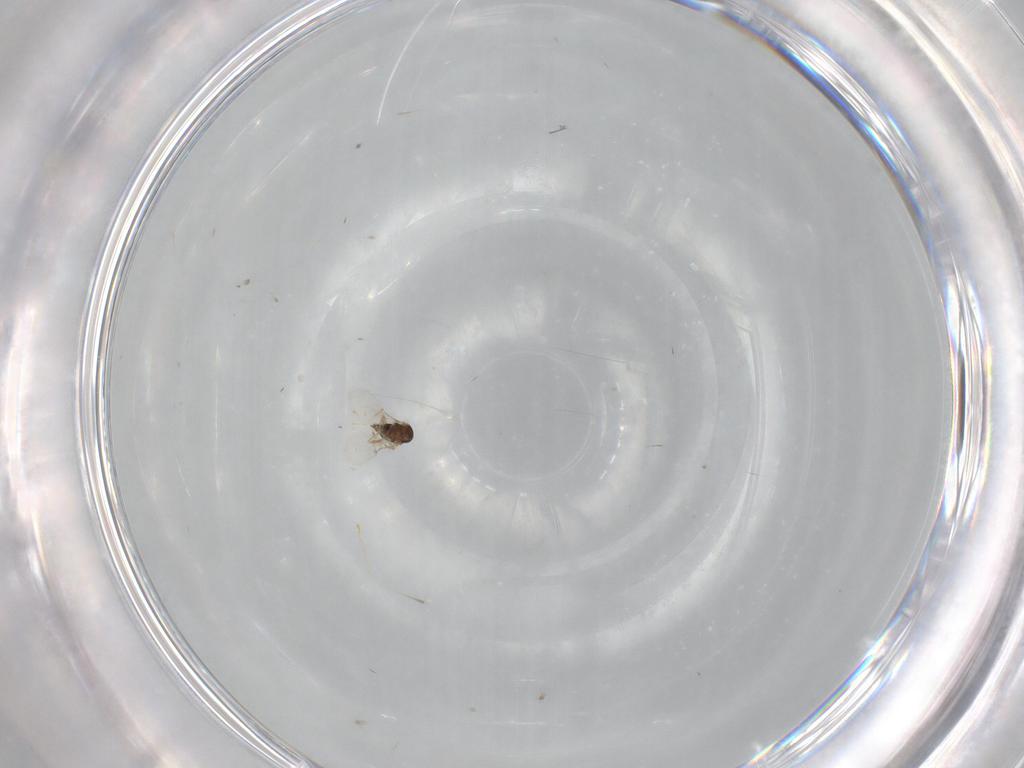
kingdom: Animalia
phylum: Arthropoda
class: Insecta
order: Hymenoptera
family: Encyrtidae
